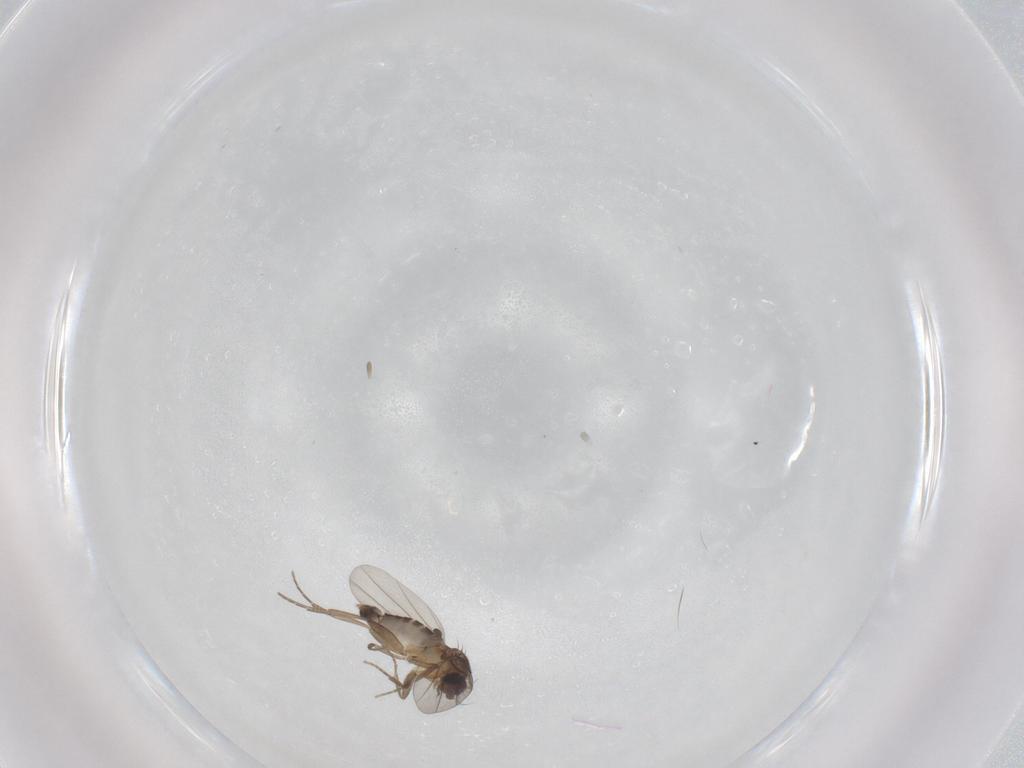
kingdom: Animalia
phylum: Arthropoda
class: Insecta
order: Diptera
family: Phoridae
